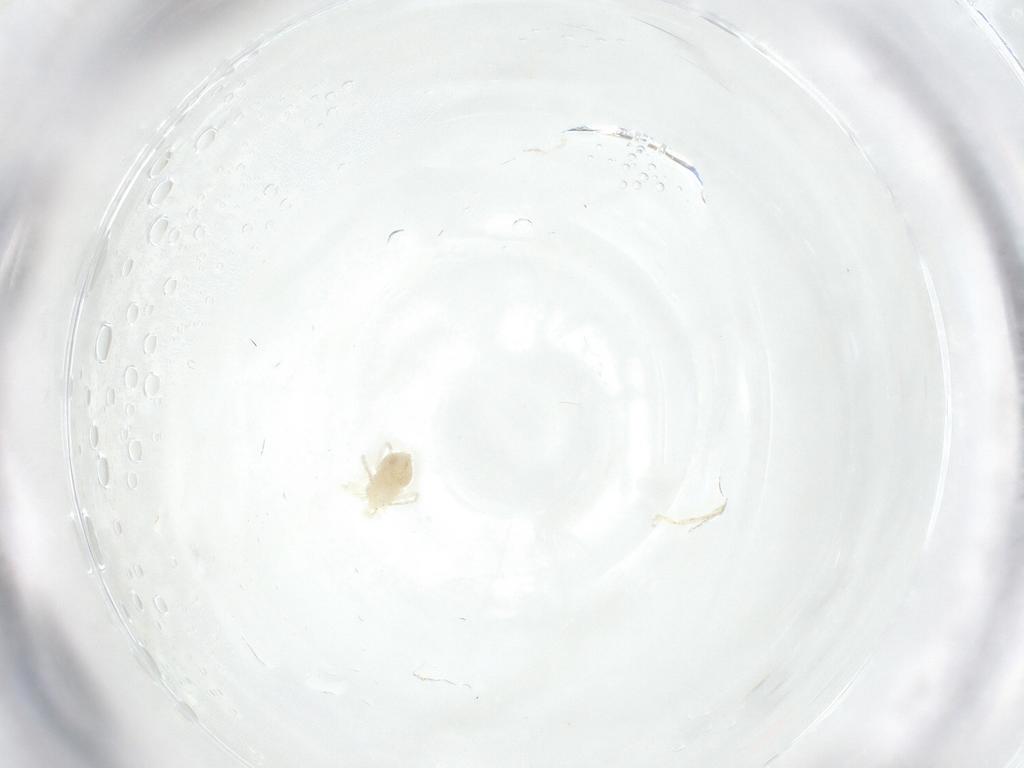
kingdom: Animalia
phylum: Arthropoda
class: Arachnida
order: Trombidiformes
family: Anystidae
